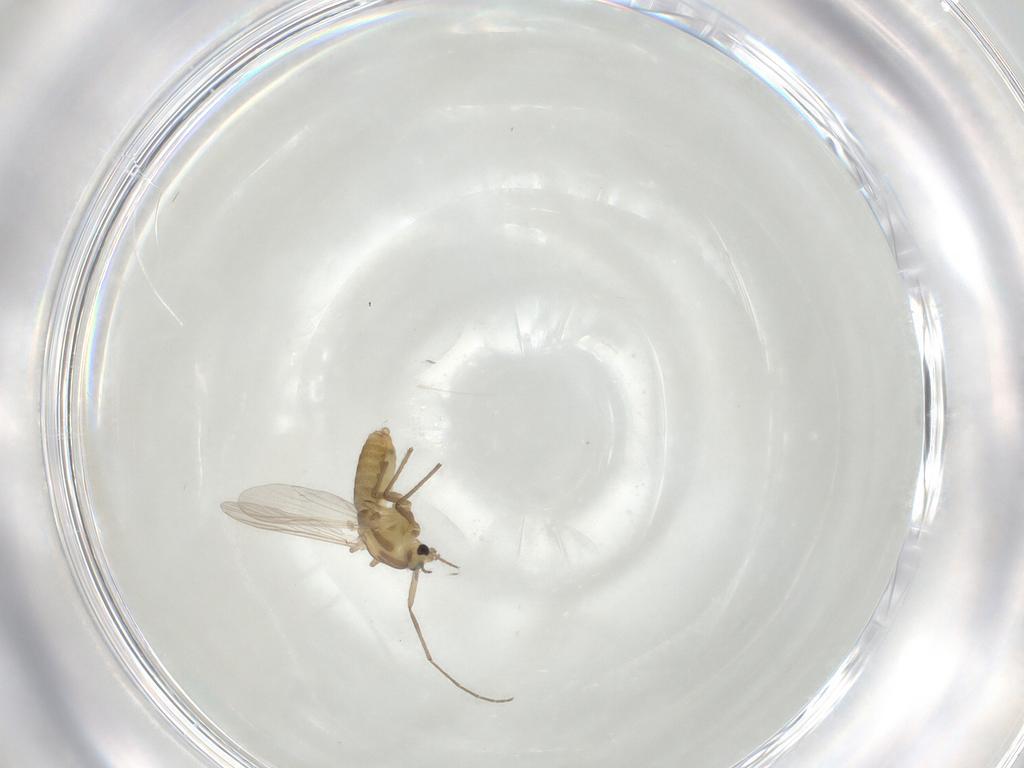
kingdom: Animalia
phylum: Arthropoda
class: Insecta
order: Diptera
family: Chironomidae
